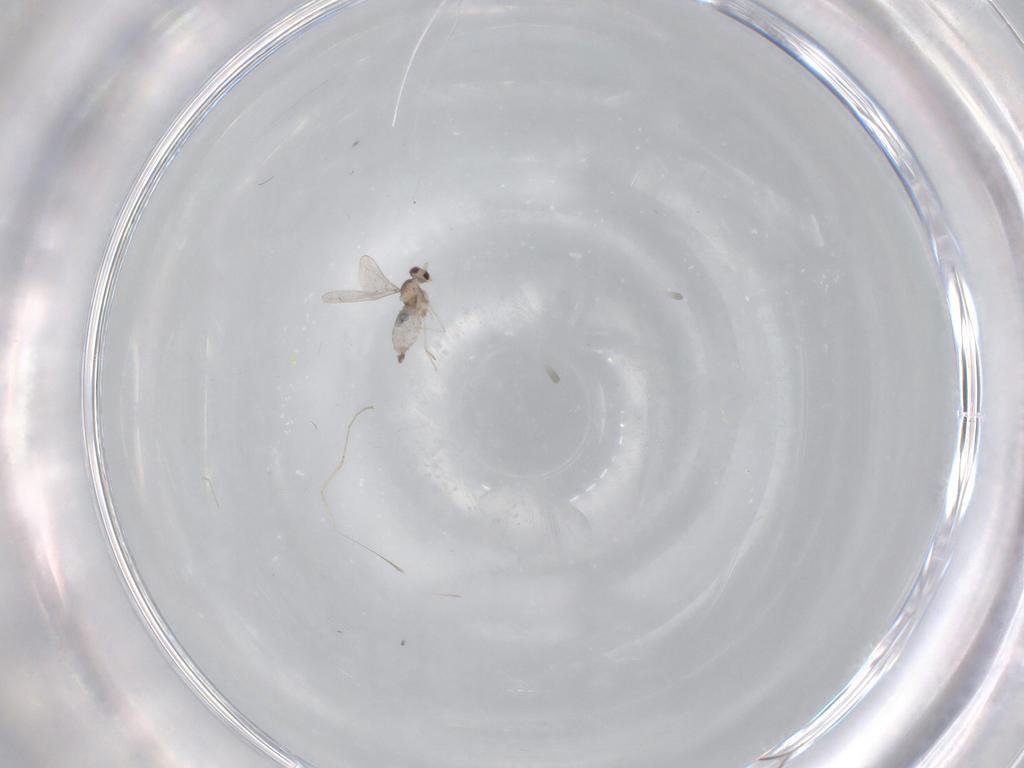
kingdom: Animalia
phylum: Arthropoda
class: Insecta
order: Diptera
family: Cecidomyiidae
